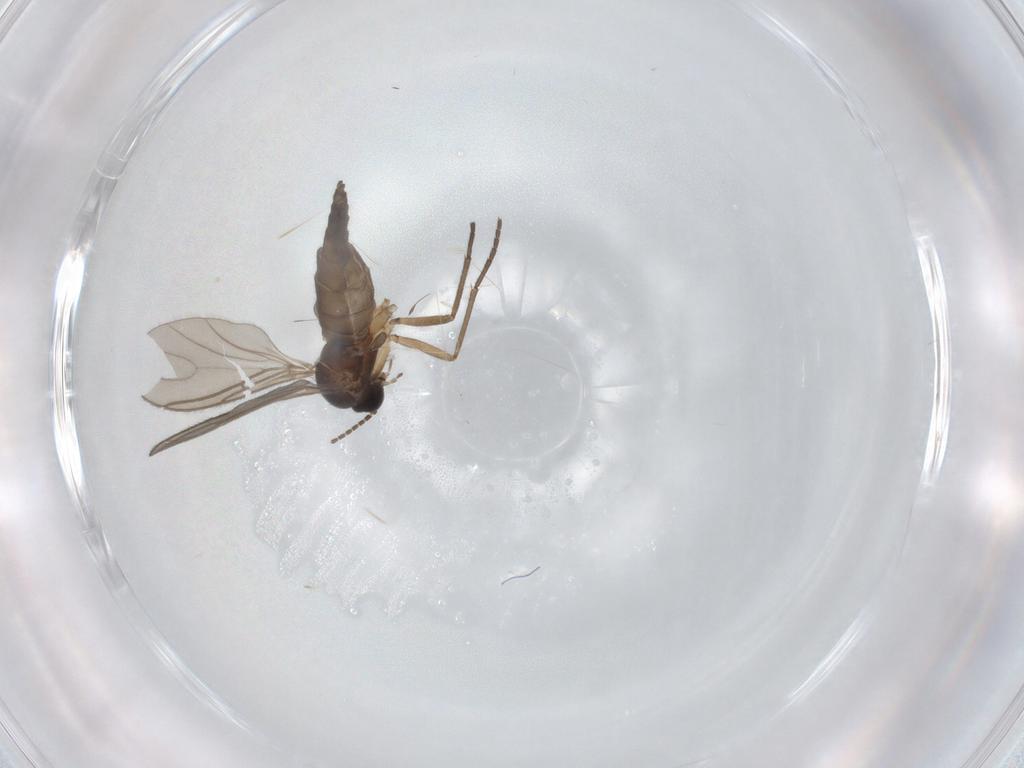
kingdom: Animalia
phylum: Arthropoda
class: Insecta
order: Diptera
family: Sciaridae
